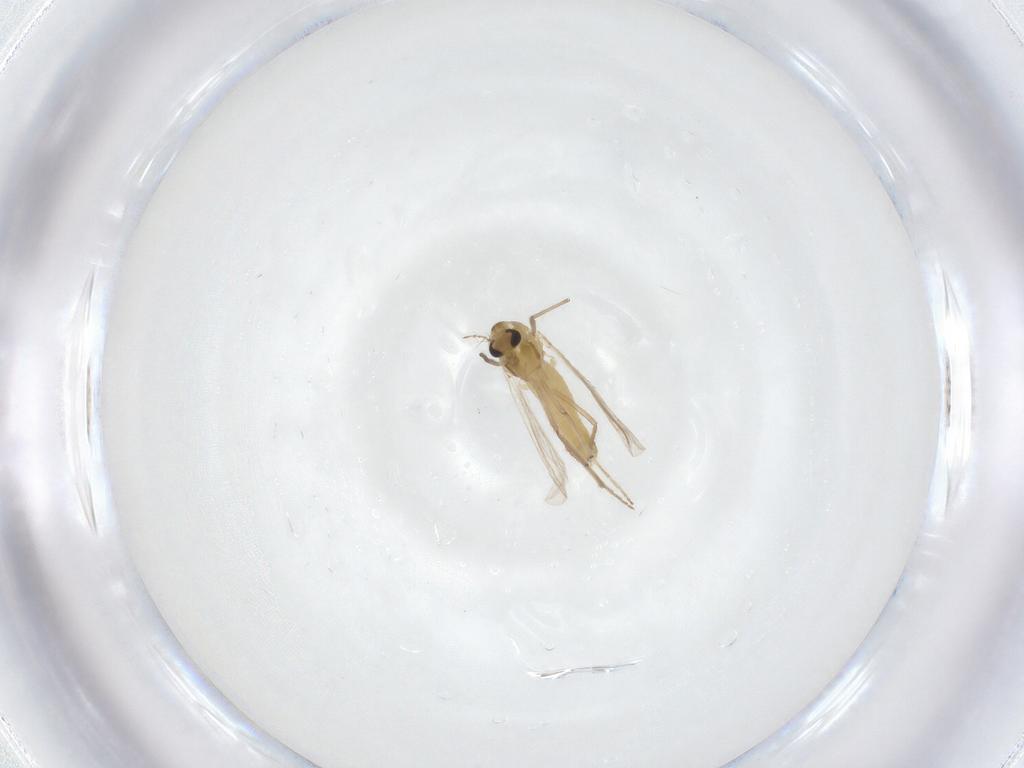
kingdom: Animalia
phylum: Arthropoda
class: Insecta
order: Diptera
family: Chironomidae
